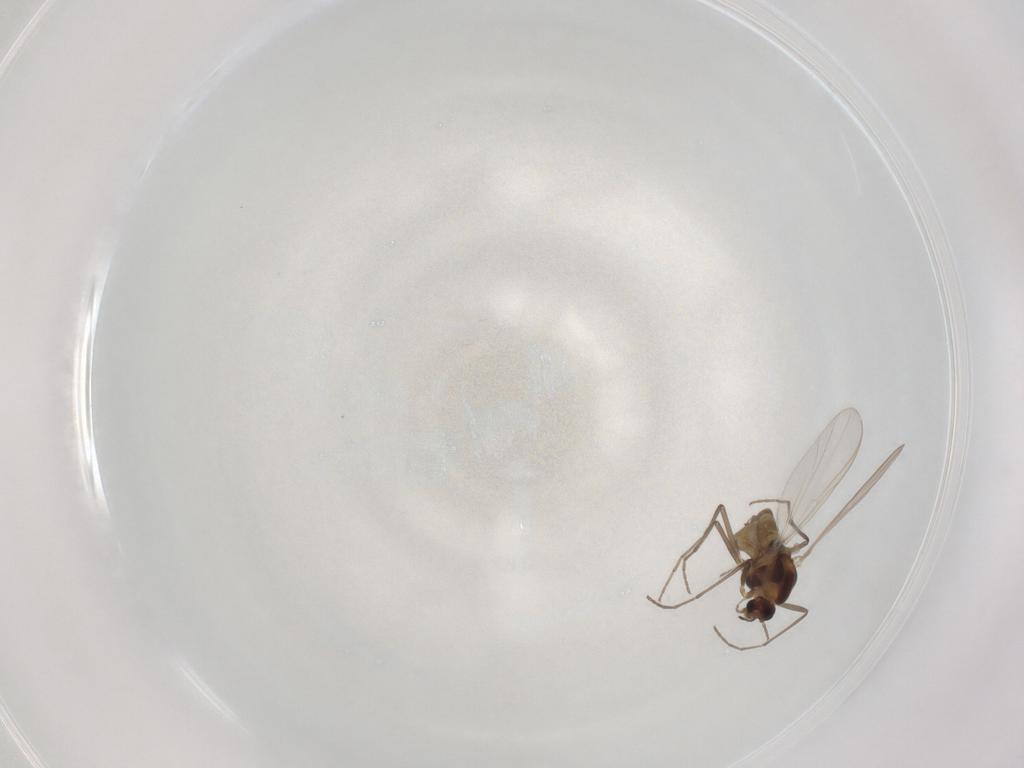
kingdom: Animalia
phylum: Arthropoda
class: Insecta
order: Diptera
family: Chironomidae
